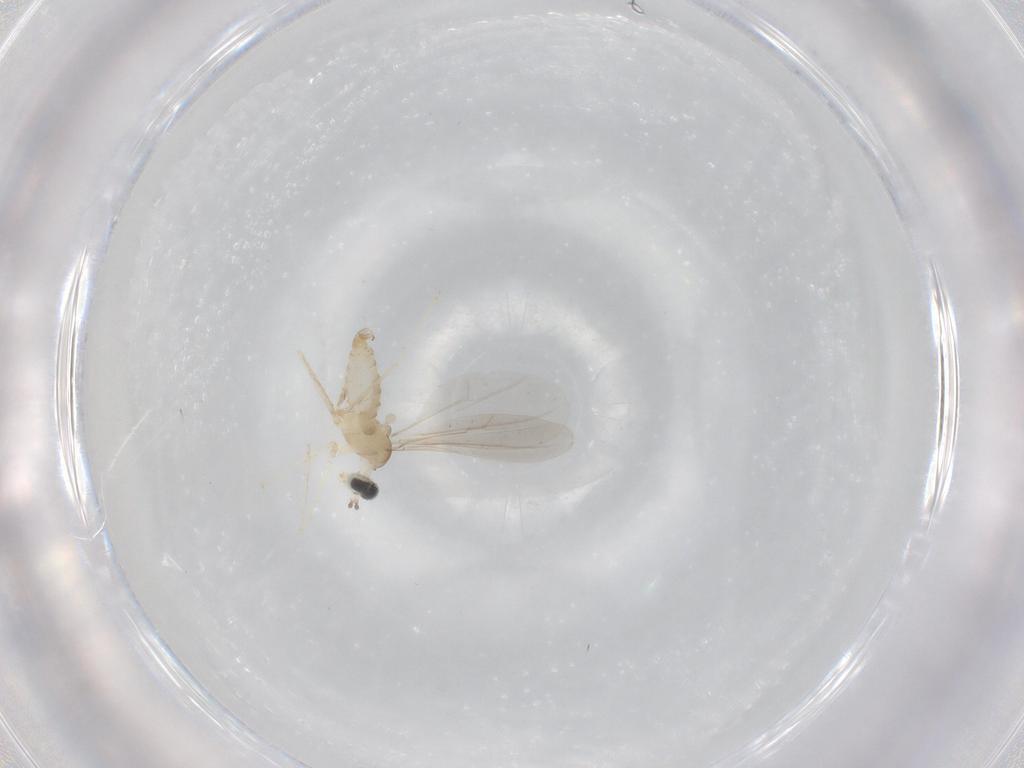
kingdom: Animalia
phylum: Arthropoda
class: Insecta
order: Diptera
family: Cecidomyiidae
